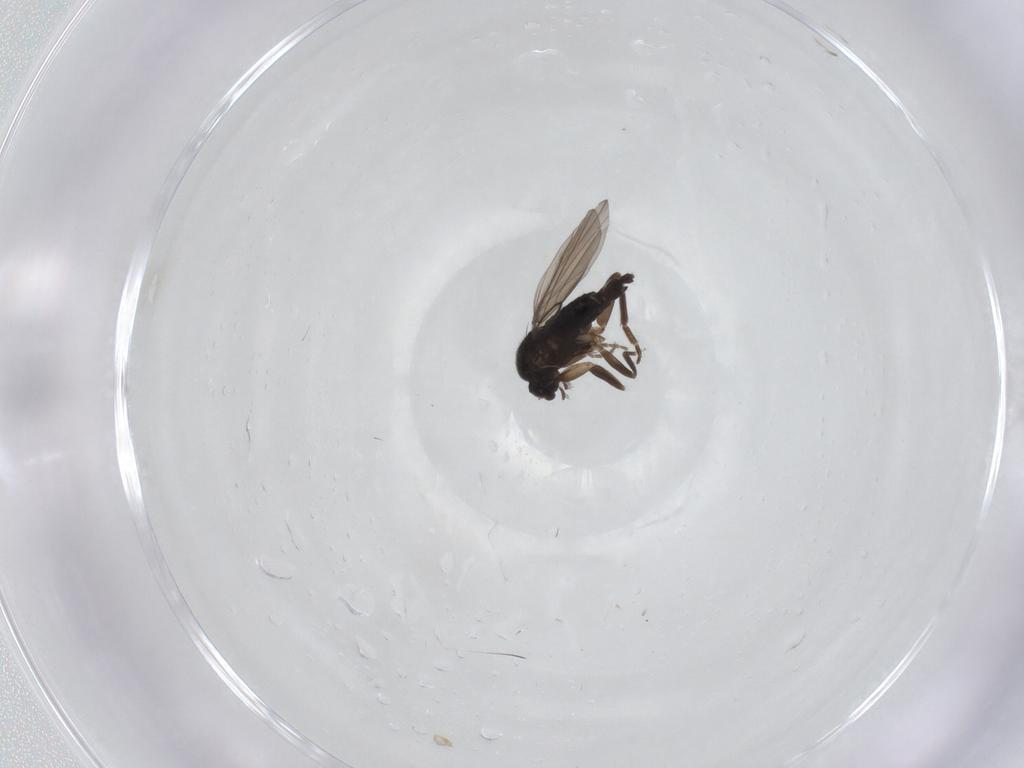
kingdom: Animalia
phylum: Arthropoda
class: Insecta
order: Diptera
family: Phoridae
